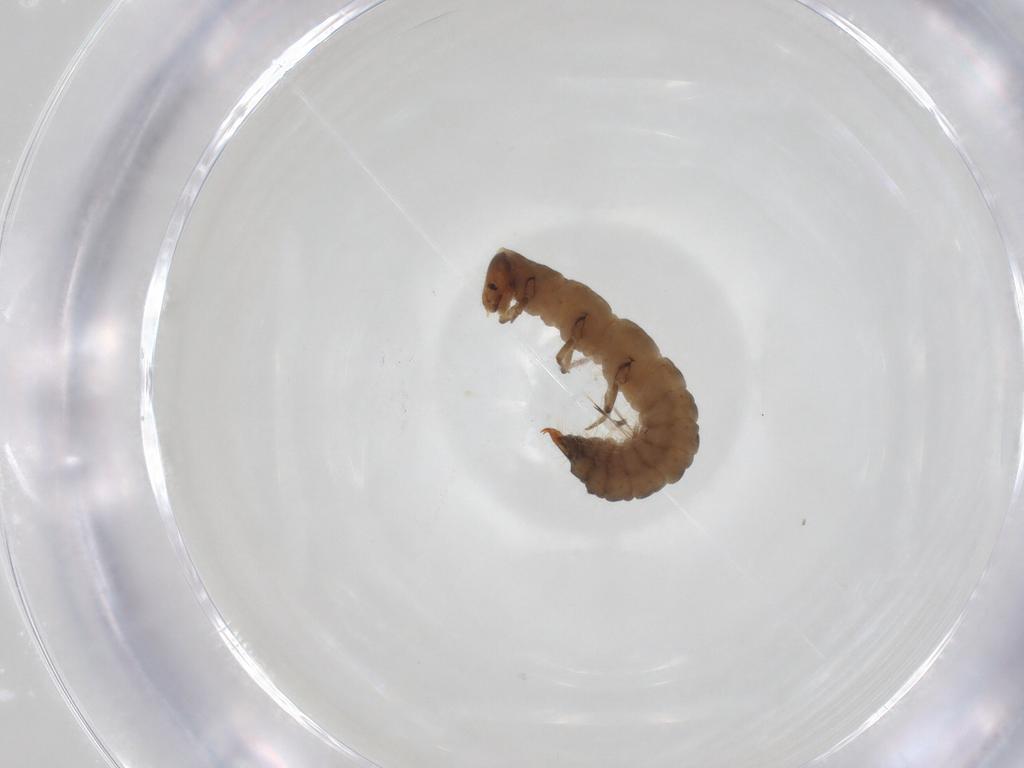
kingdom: Animalia
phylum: Arthropoda
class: Insecta
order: Coleoptera
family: Melyridae
